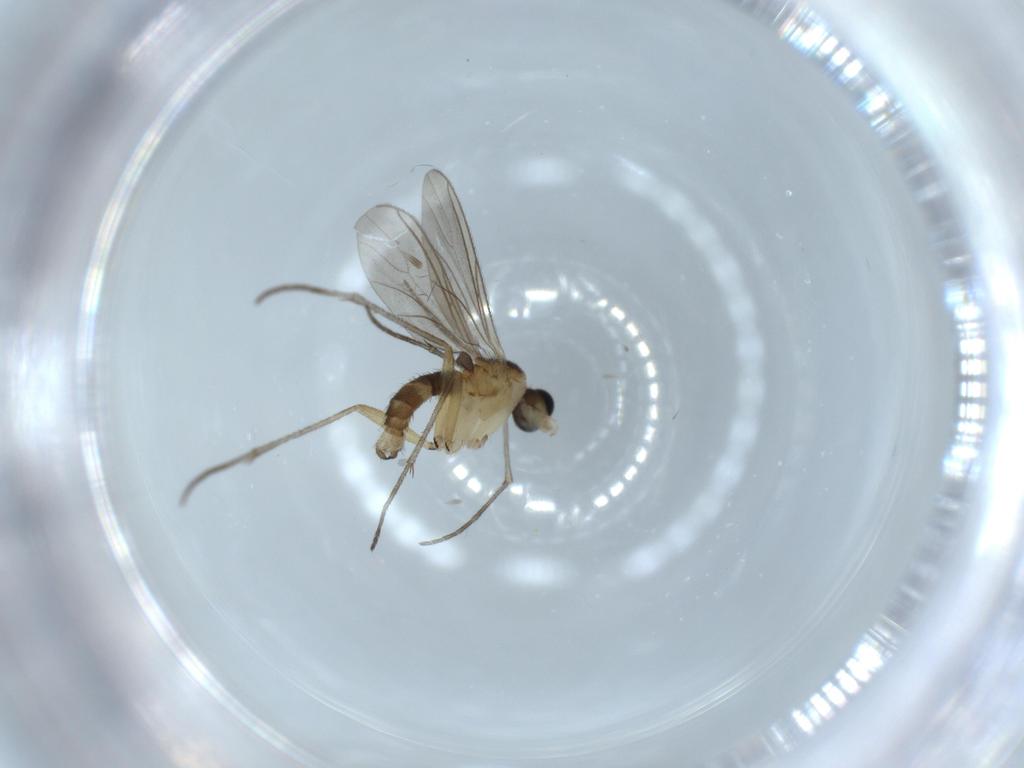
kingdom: Animalia
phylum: Arthropoda
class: Insecta
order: Diptera
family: Sciaridae
